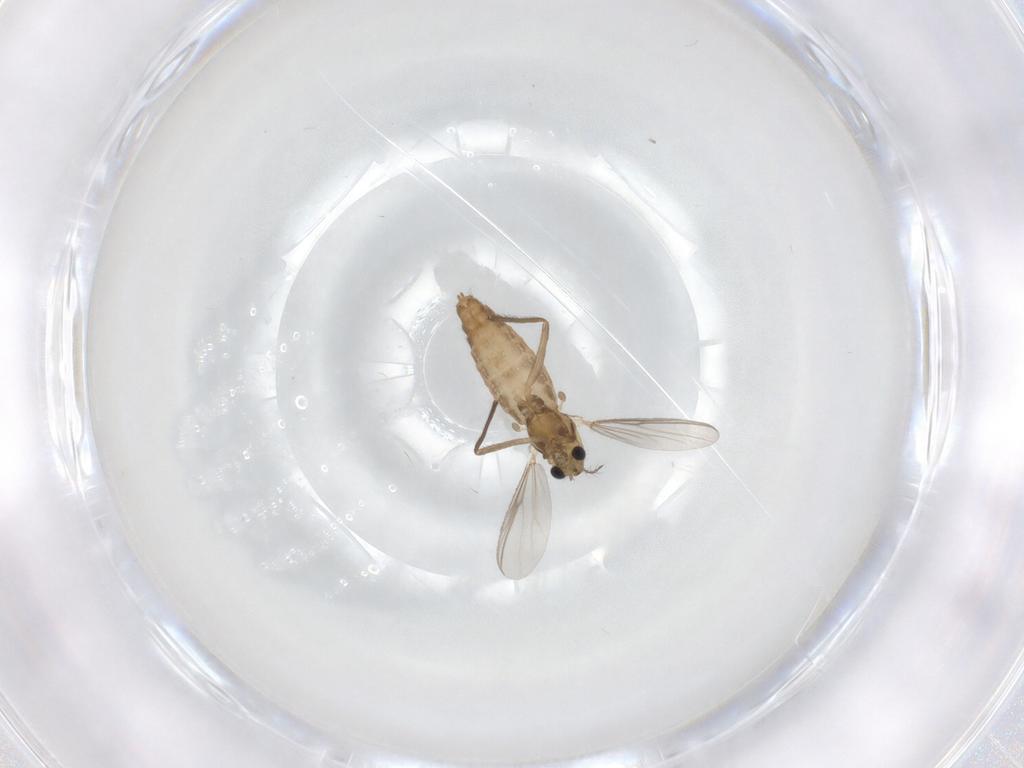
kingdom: Animalia
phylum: Arthropoda
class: Insecta
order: Diptera
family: Chironomidae
